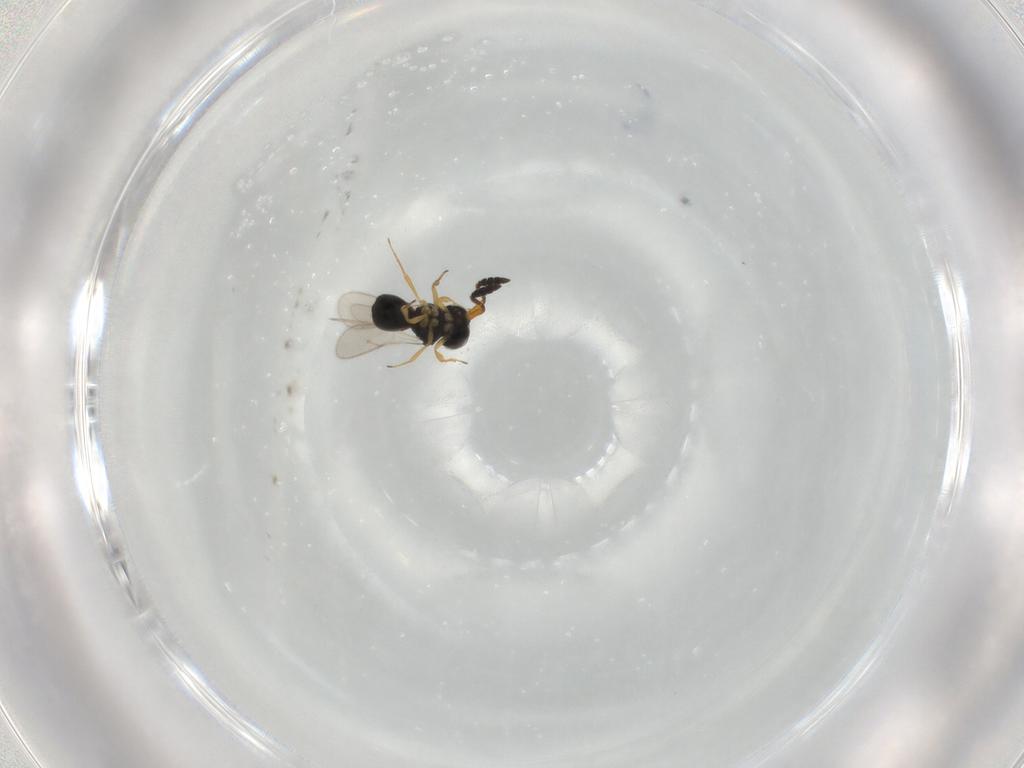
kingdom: Animalia
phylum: Arthropoda
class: Insecta
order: Hymenoptera
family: Scelionidae
